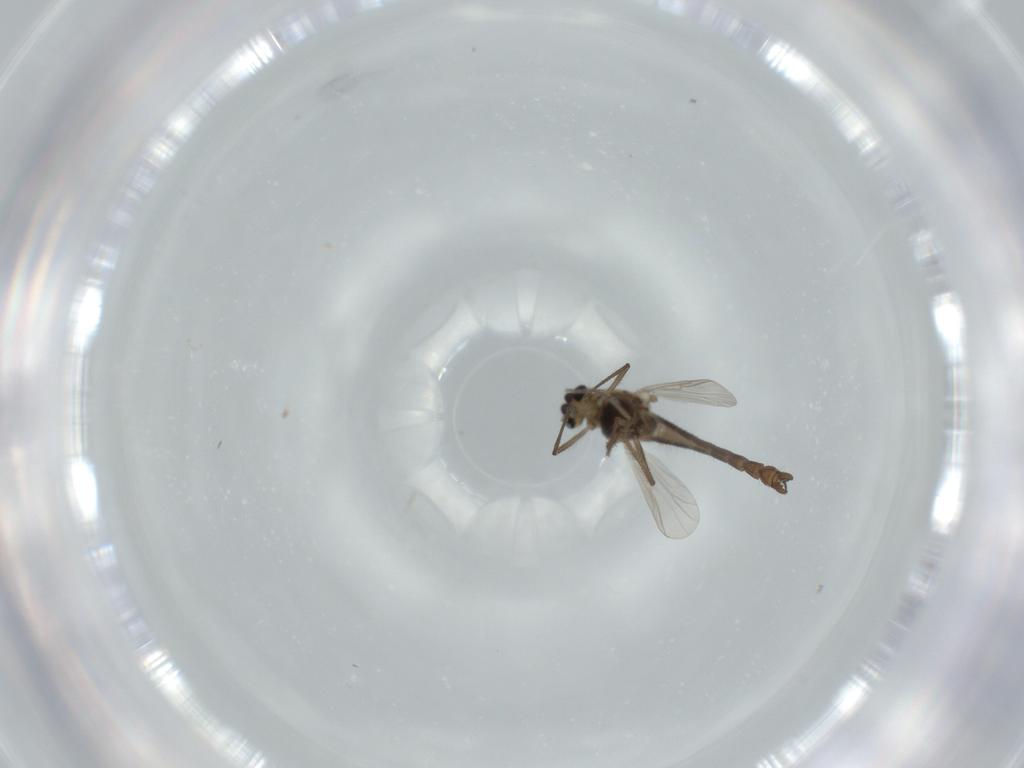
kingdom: Animalia
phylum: Arthropoda
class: Insecta
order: Diptera
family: Chironomidae
